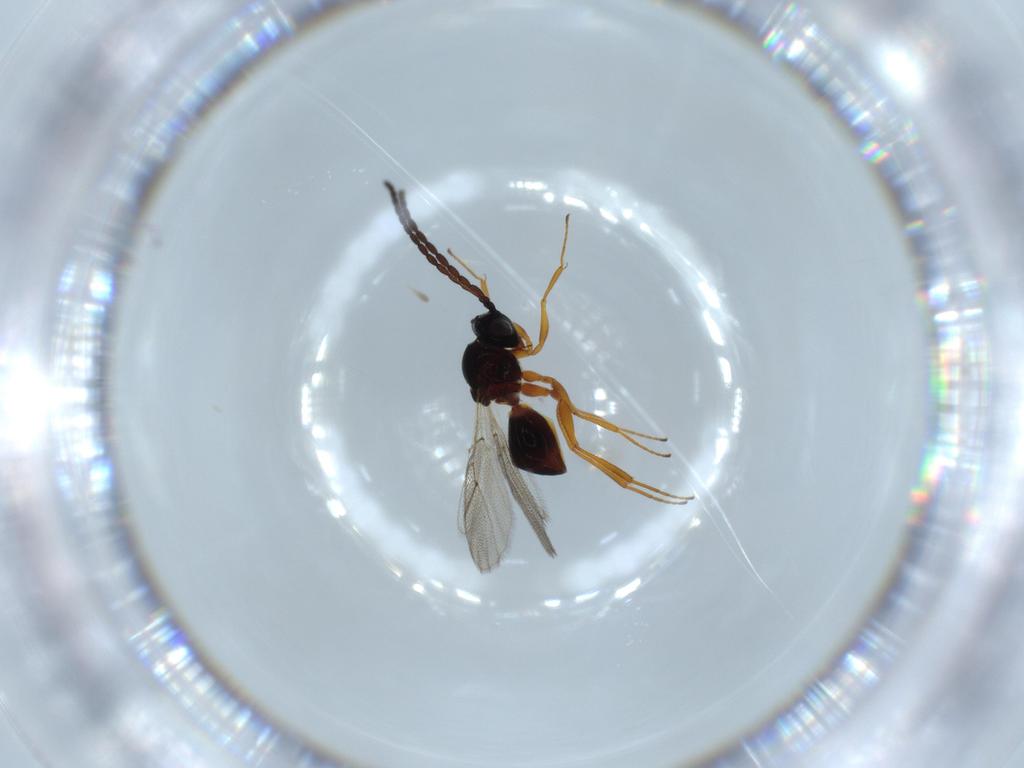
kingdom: Animalia
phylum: Arthropoda
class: Insecta
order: Hymenoptera
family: Figitidae
